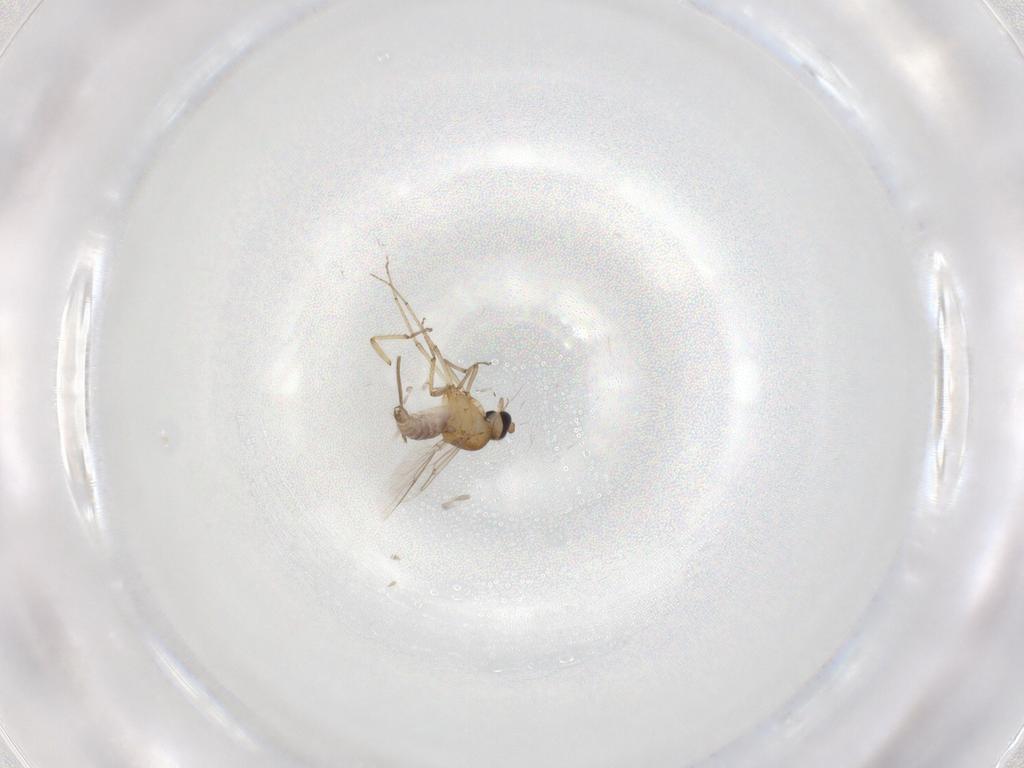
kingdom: Animalia
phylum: Arthropoda
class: Insecta
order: Diptera
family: Ceratopogonidae
